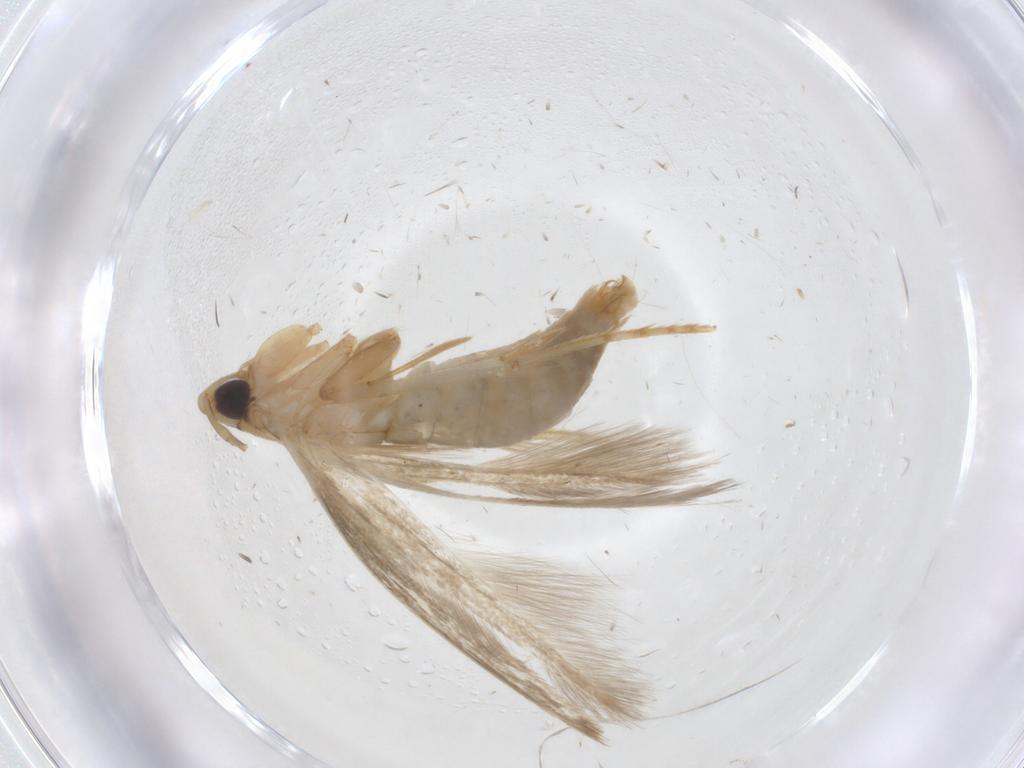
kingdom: Animalia
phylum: Arthropoda
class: Insecta
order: Lepidoptera
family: Tineidae
